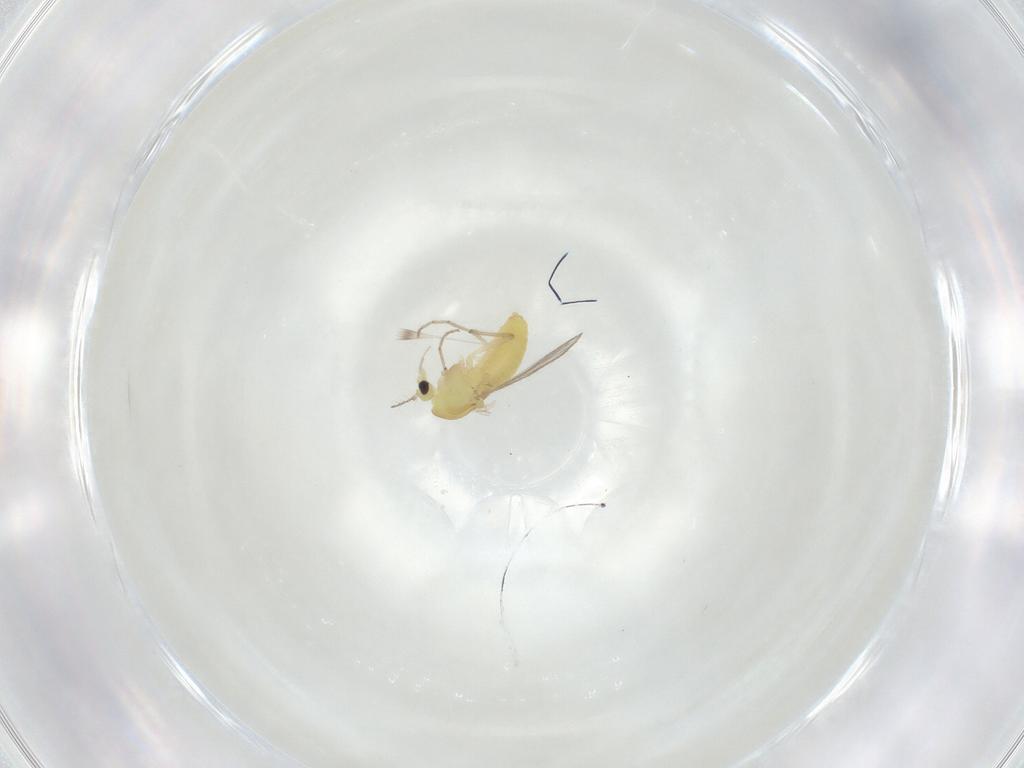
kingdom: Animalia
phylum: Arthropoda
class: Insecta
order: Diptera
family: Chironomidae
